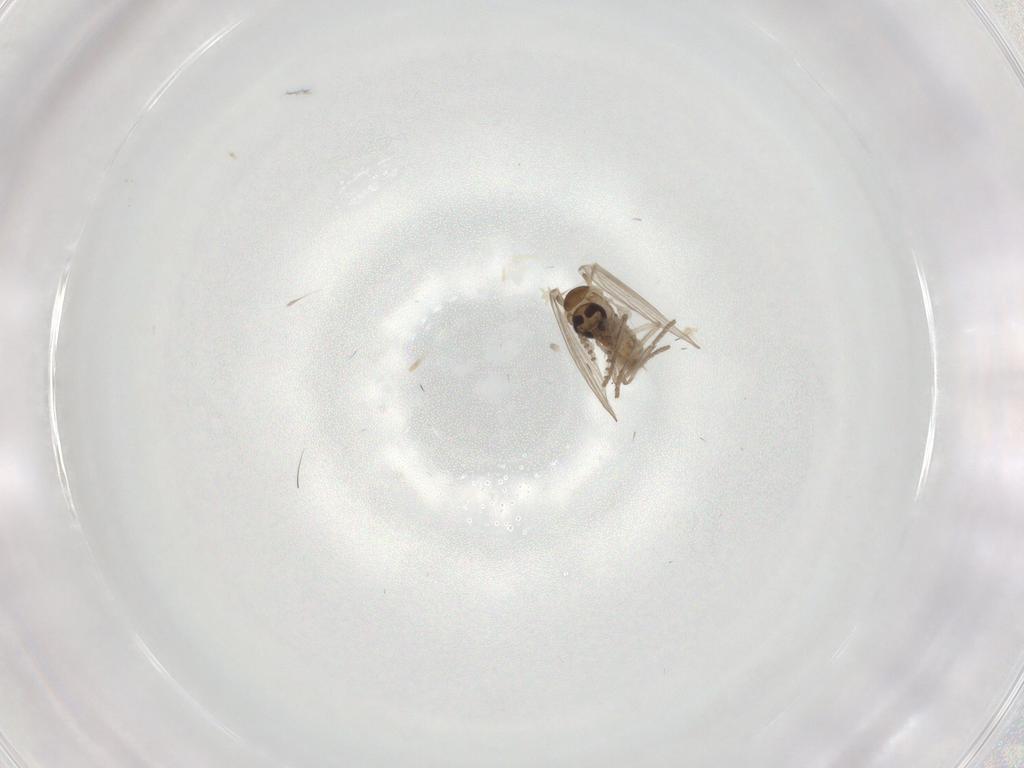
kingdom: Animalia
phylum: Arthropoda
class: Insecta
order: Diptera
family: Psychodidae
